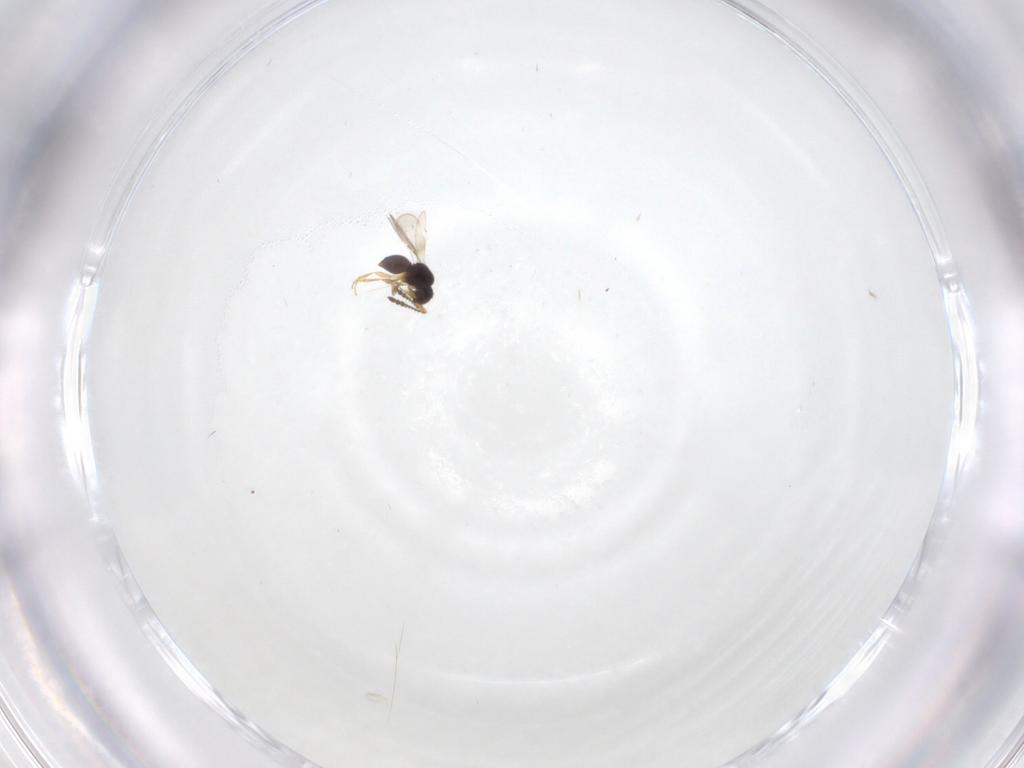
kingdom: Animalia
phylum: Arthropoda
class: Insecta
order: Hymenoptera
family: Ceraphronidae
